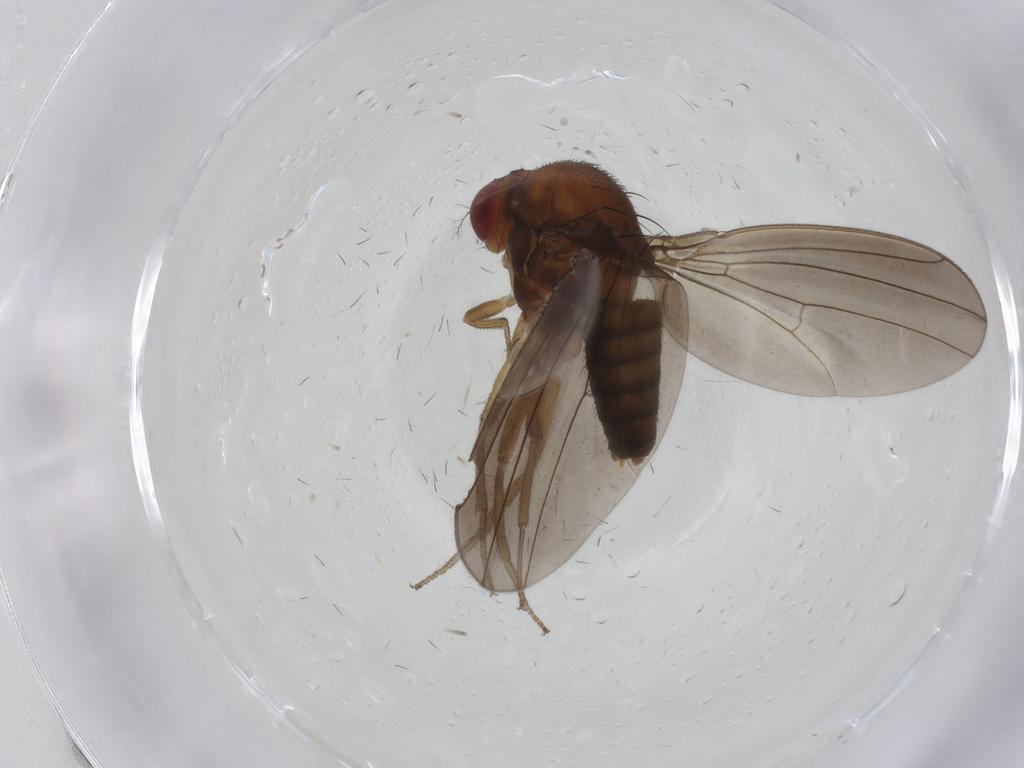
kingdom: Animalia
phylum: Arthropoda
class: Insecta
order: Diptera
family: Drosophilidae
